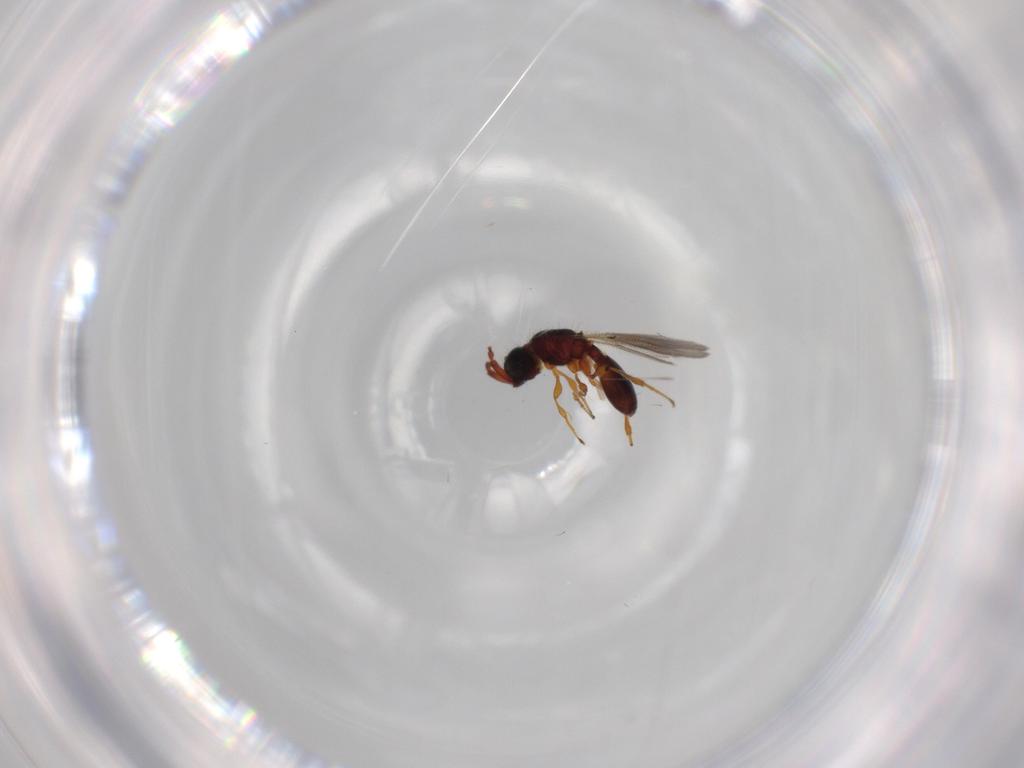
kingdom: Animalia
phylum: Arthropoda
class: Insecta
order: Hymenoptera
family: Diapriidae
